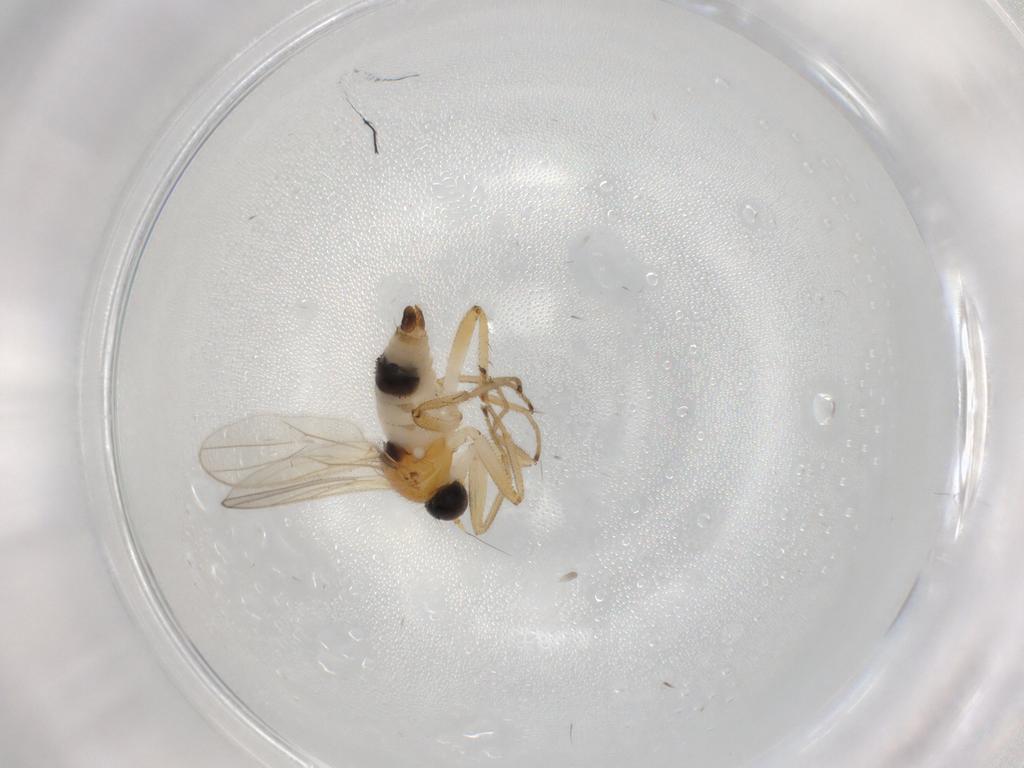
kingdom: Animalia
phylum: Arthropoda
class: Insecta
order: Diptera
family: Hybotidae
